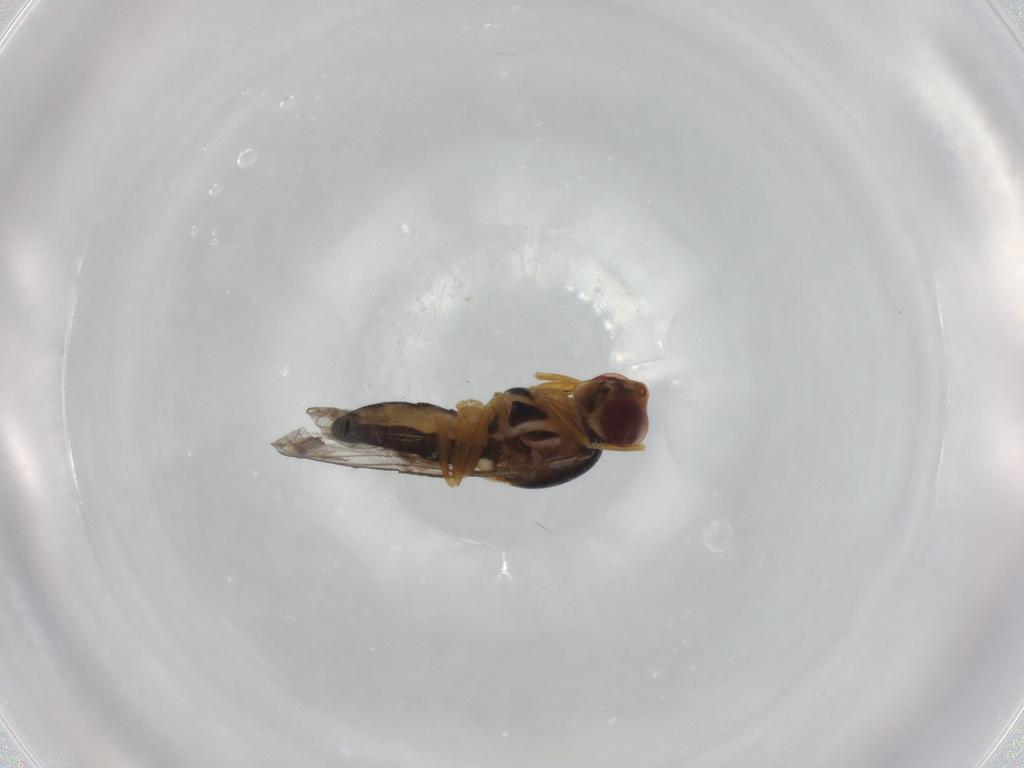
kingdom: Animalia
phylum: Arthropoda
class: Insecta
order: Diptera
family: Chloropidae
